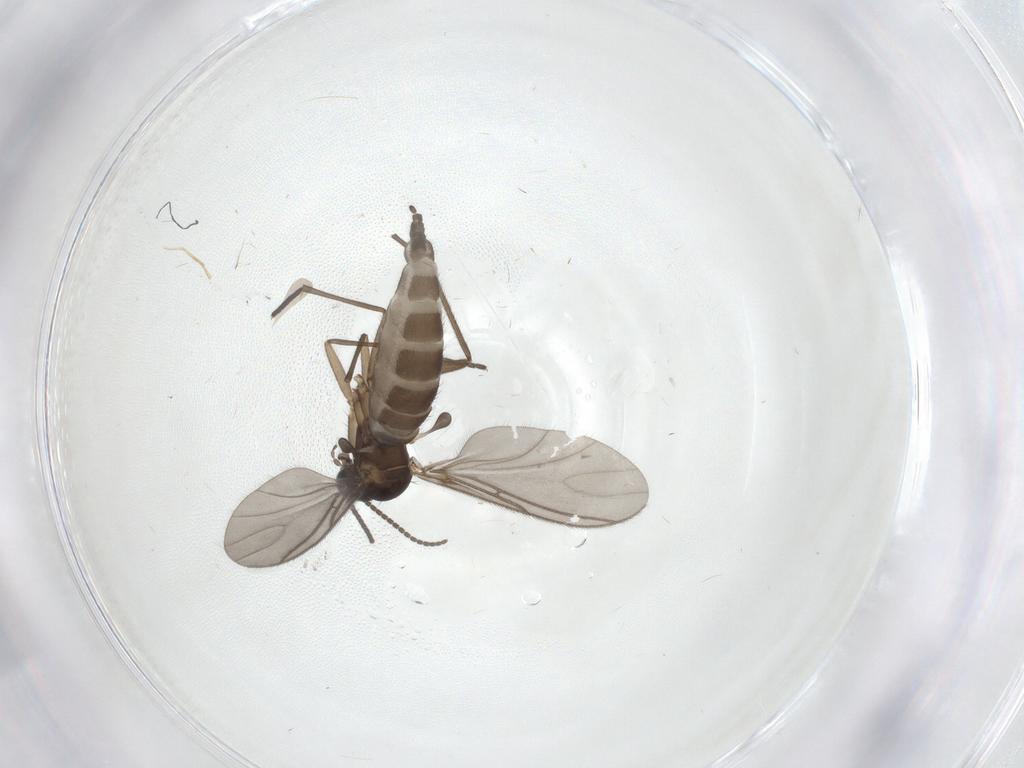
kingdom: Animalia
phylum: Arthropoda
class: Insecta
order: Diptera
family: Sciaridae
